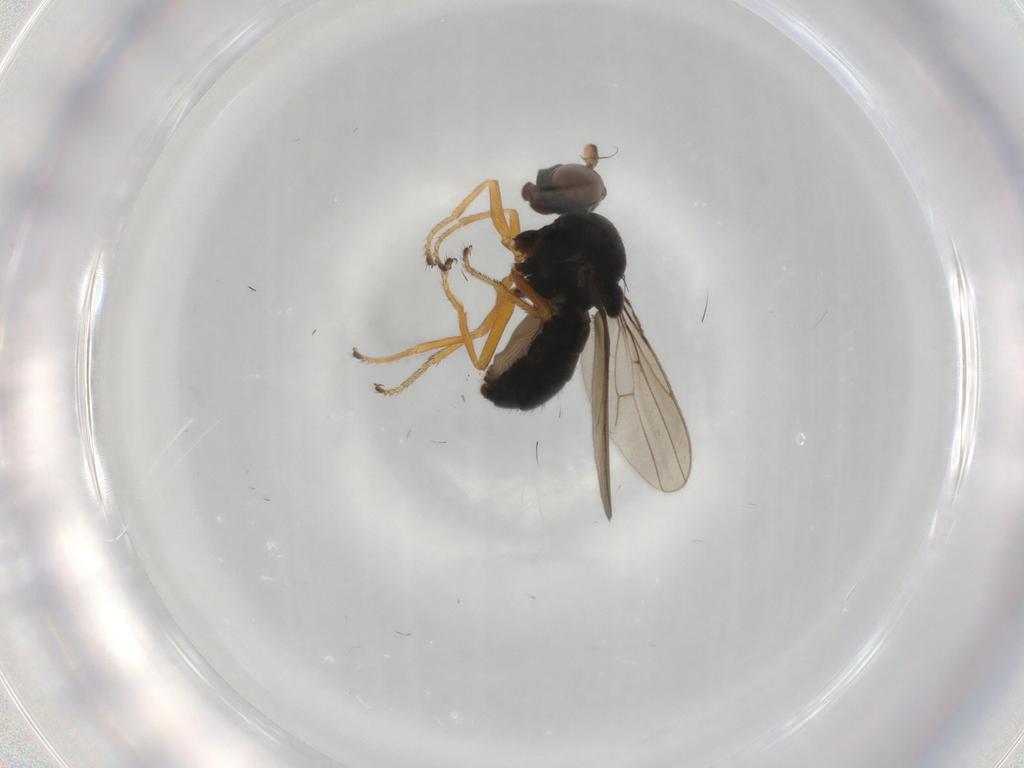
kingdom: Animalia
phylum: Arthropoda
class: Insecta
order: Diptera
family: Ephydridae
